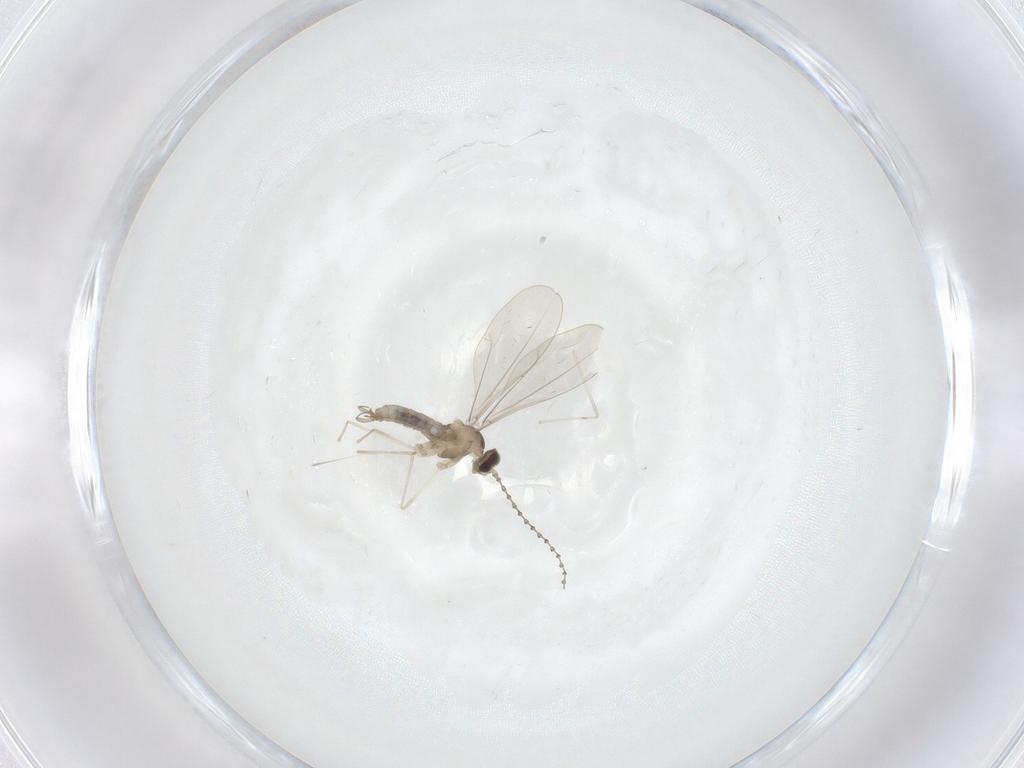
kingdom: Animalia
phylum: Arthropoda
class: Insecta
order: Diptera
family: Cecidomyiidae
